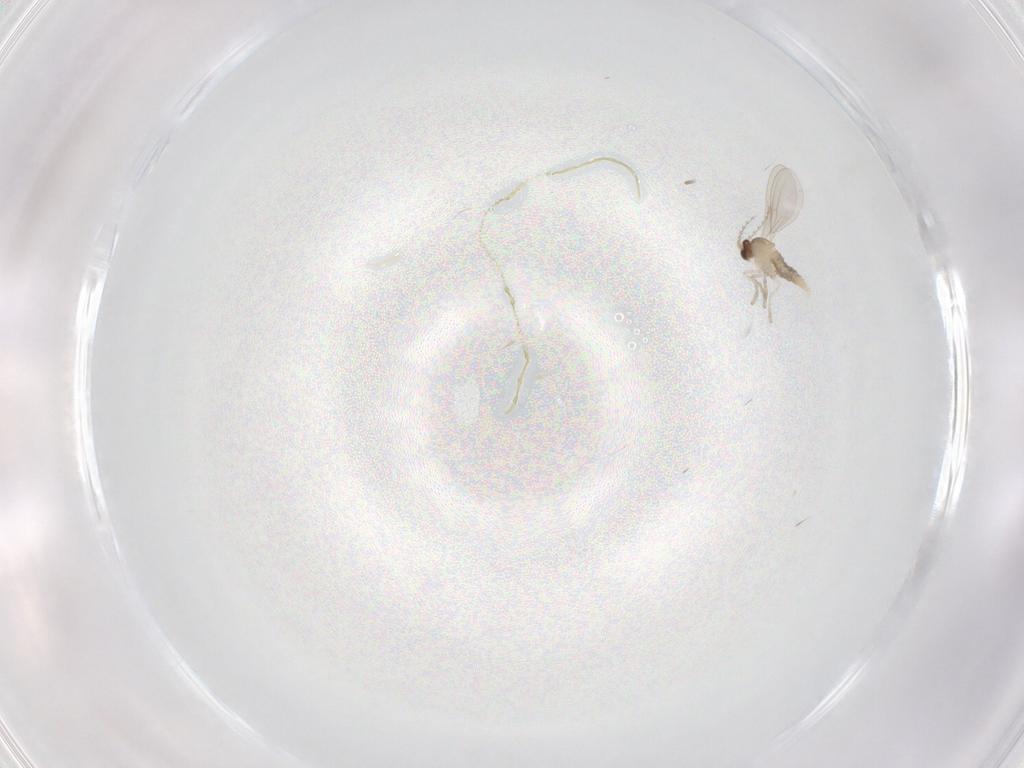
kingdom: Animalia
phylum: Arthropoda
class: Insecta
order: Diptera
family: Cecidomyiidae
